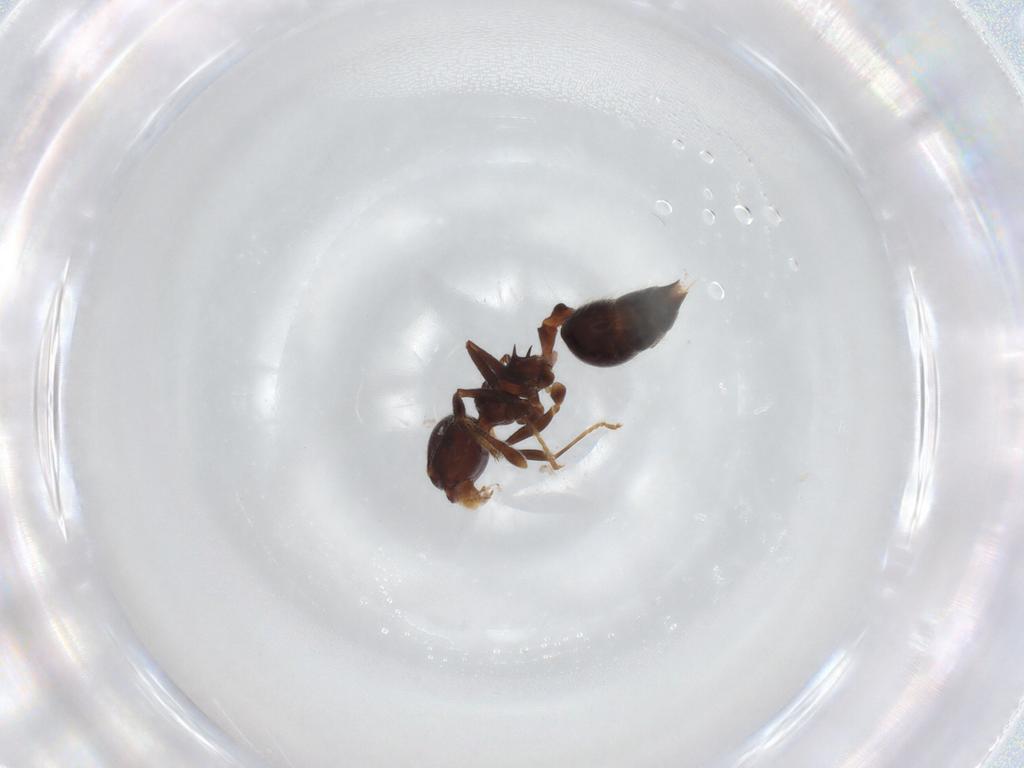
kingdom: Animalia
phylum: Arthropoda
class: Insecta
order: Hymenoptera
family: Formicidae
